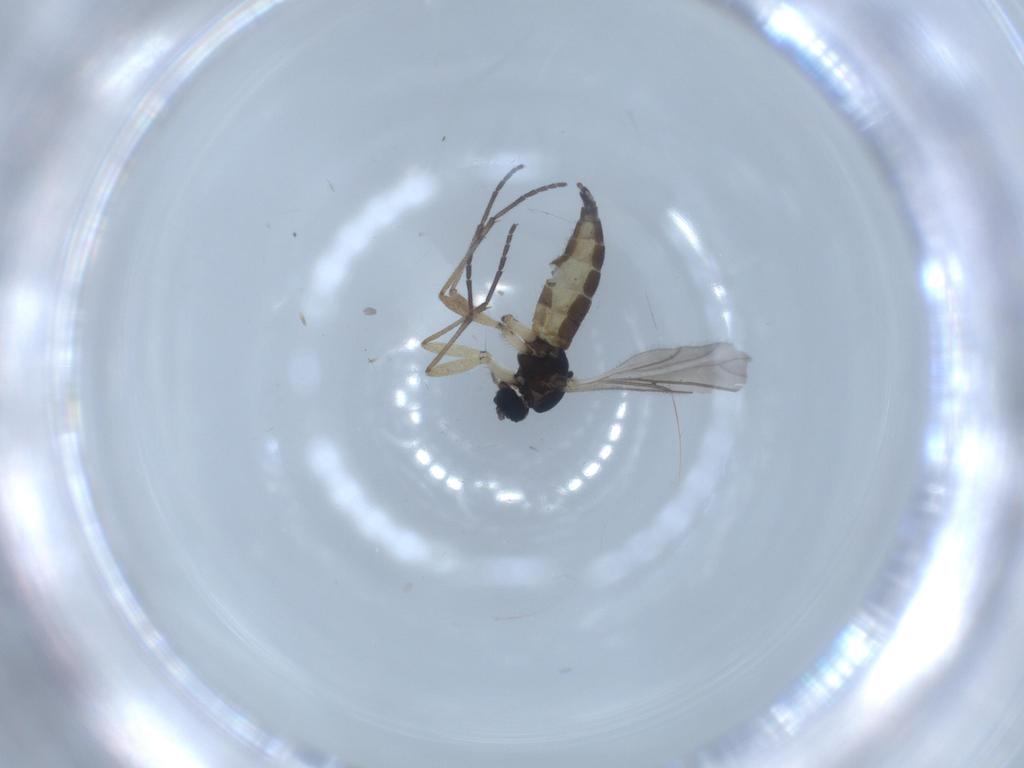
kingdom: Animalia
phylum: Arthropoda
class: Insecta
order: Diptera
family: Sciaridae
